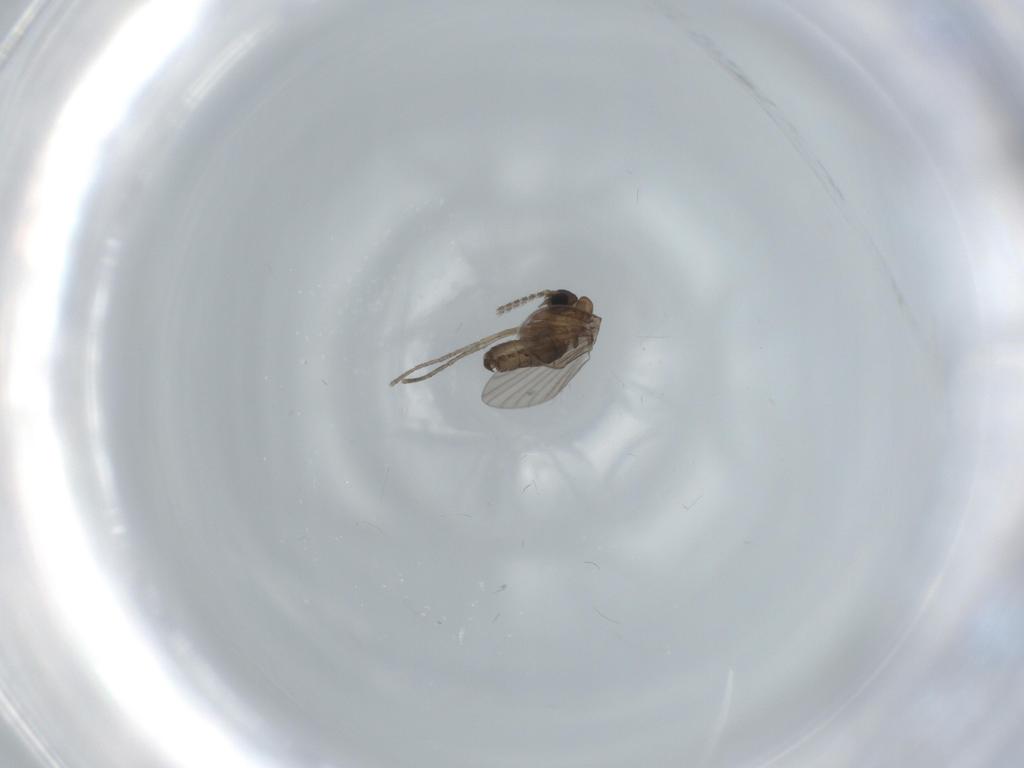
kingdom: Animalia
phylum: Arthropoda
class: Insecta
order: Diptera
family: Psychodidae
